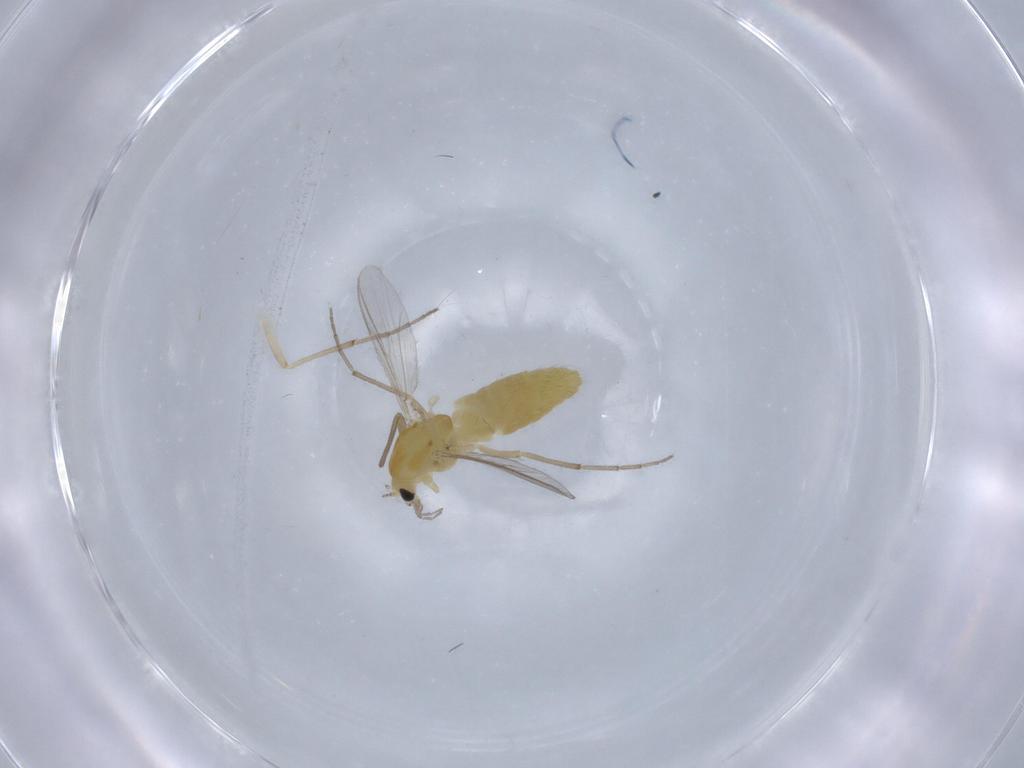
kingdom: Animalia
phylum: Arthropoda
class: Insecta
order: Diptera
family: Chironomidae
